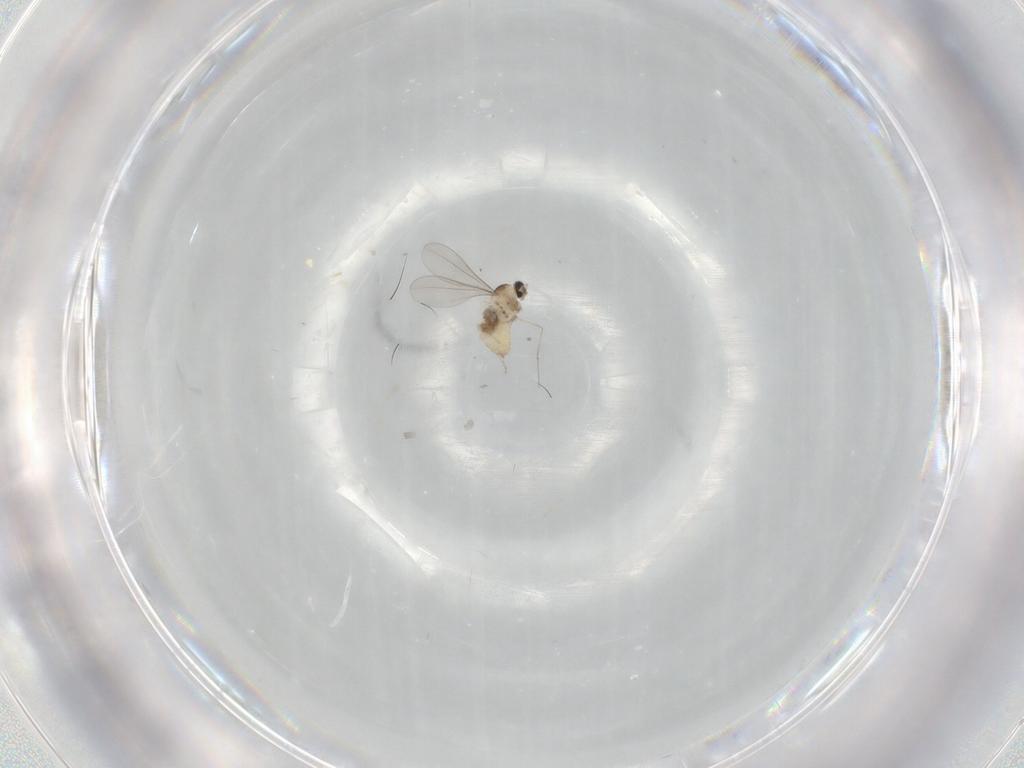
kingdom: Animalia
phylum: Arthropoda
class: Insecta
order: Diptera
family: Cecidomyiidae
